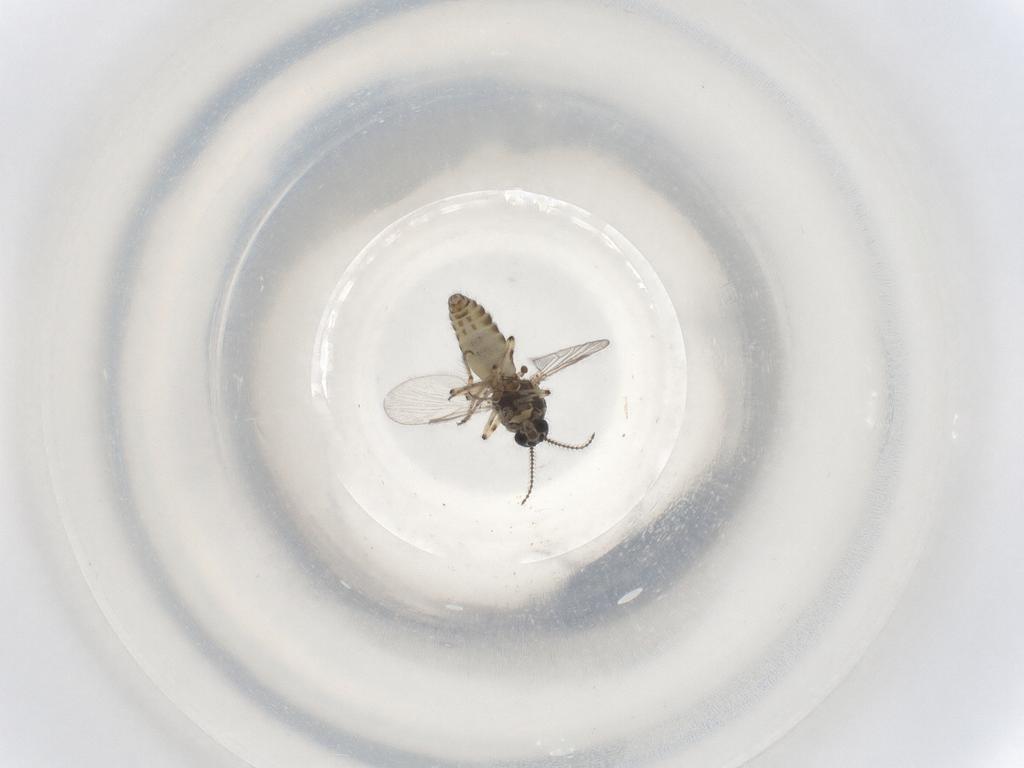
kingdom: Animalia
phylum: Arthropoda
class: Insecta
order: Diptera
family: Ceratopogonidae
